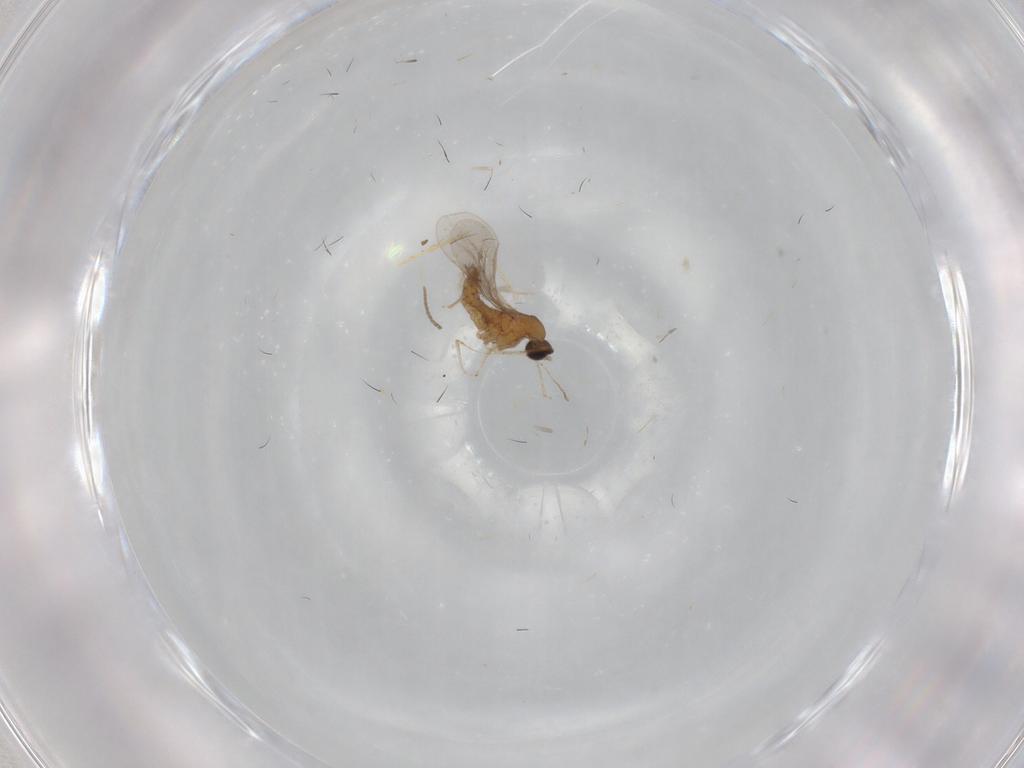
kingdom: Animalia
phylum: Arthropoda
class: Insecta
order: Diptera
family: Cecidomyiidae
